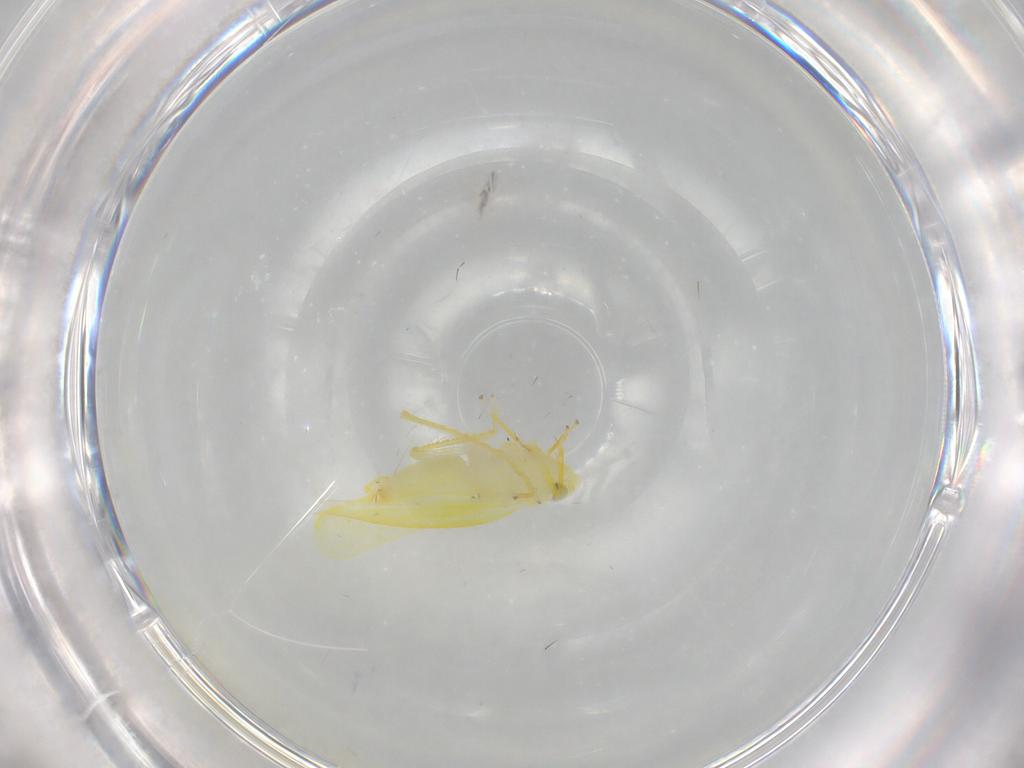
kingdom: Animalia
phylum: Arthropoda
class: Insecta
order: Hemiptera
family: Cicadellidae
